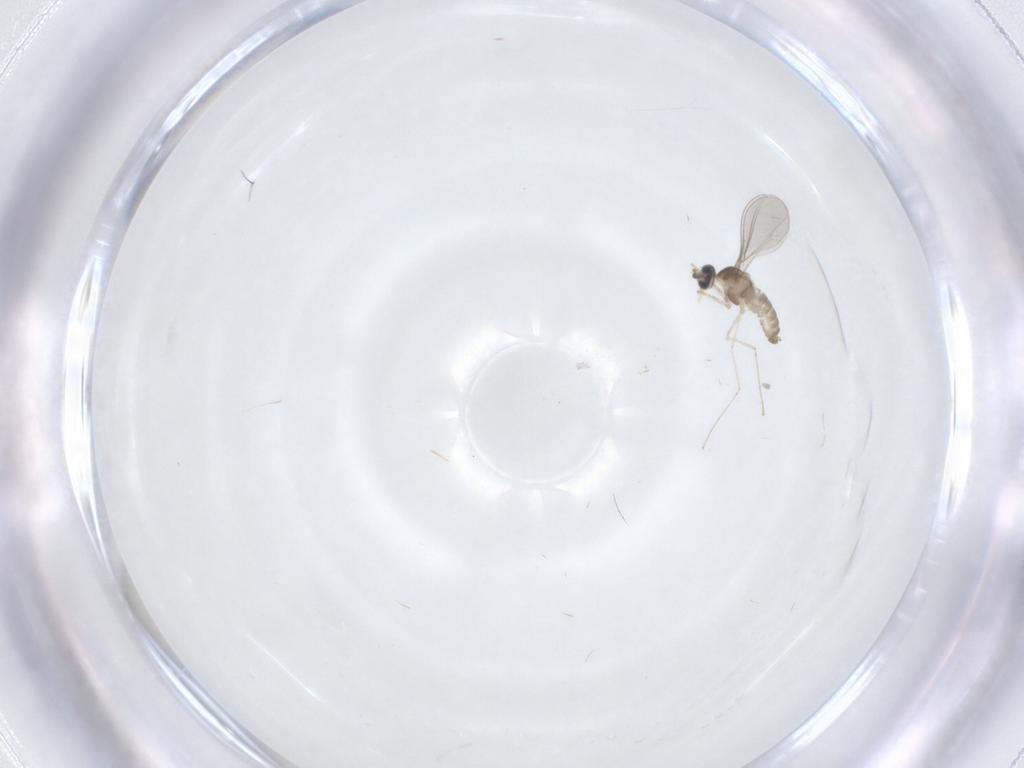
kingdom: Animalia
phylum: Arthropoda
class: Insecta
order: Diptera
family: Cecidomyiidae
